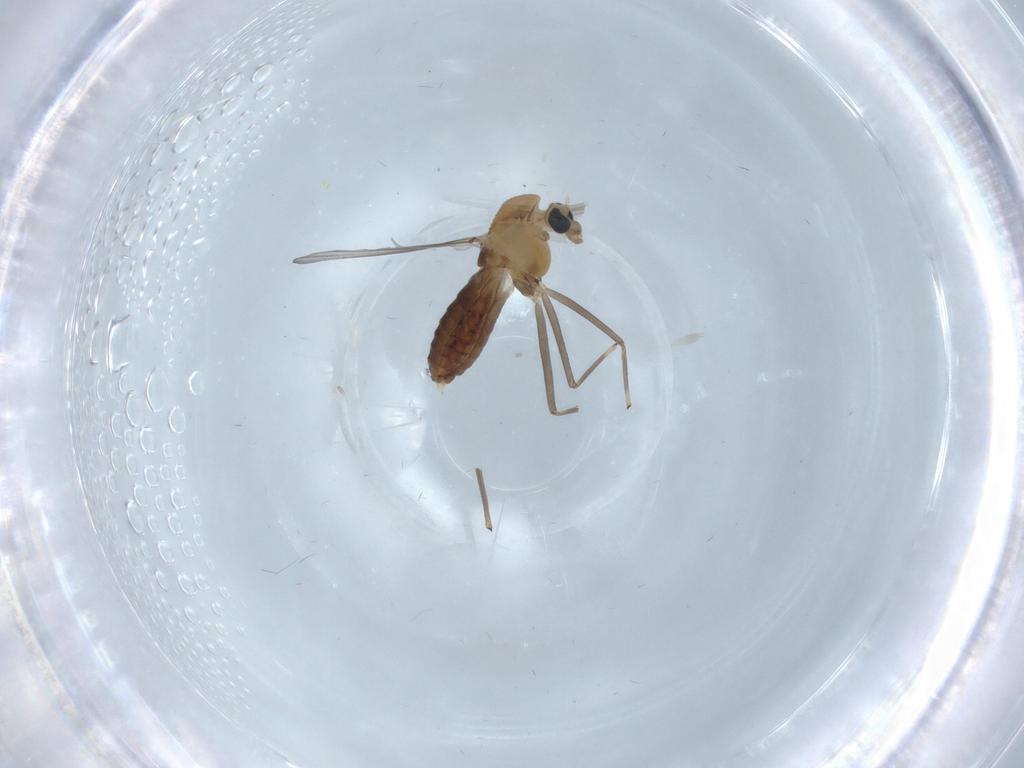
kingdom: Animalia
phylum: Arthropoda
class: Insecta
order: Diptera
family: Chironomidae
